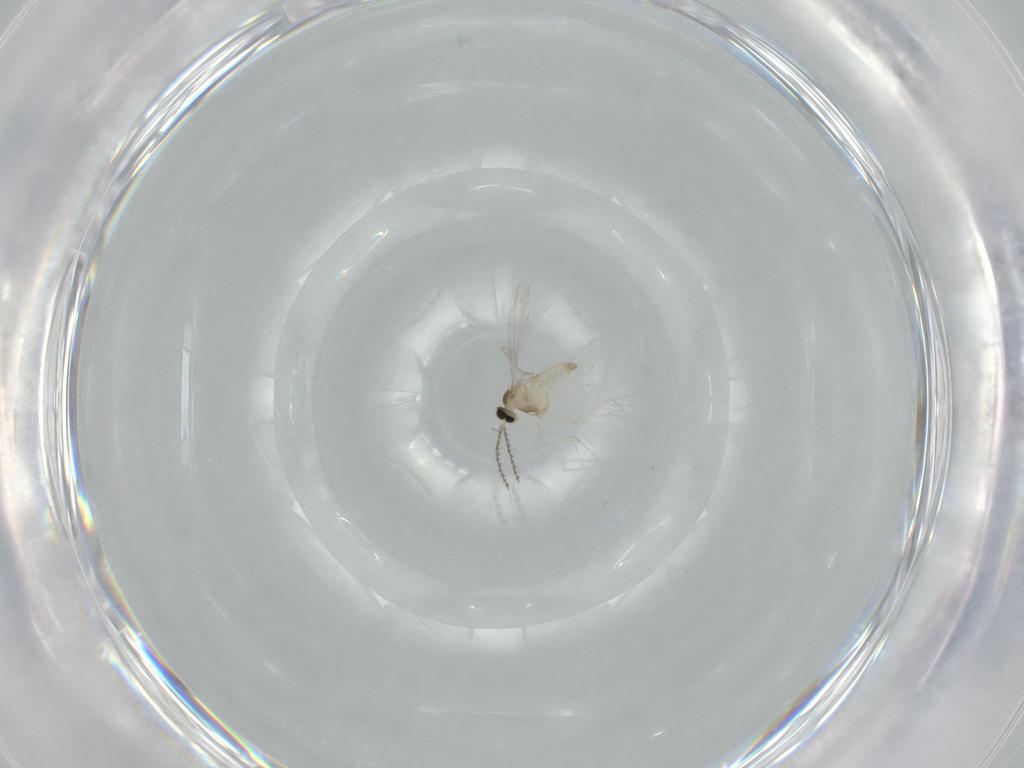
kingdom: Animalia
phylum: Arthropoda
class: Insecta
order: Diptera
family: Cecidomyiidae
